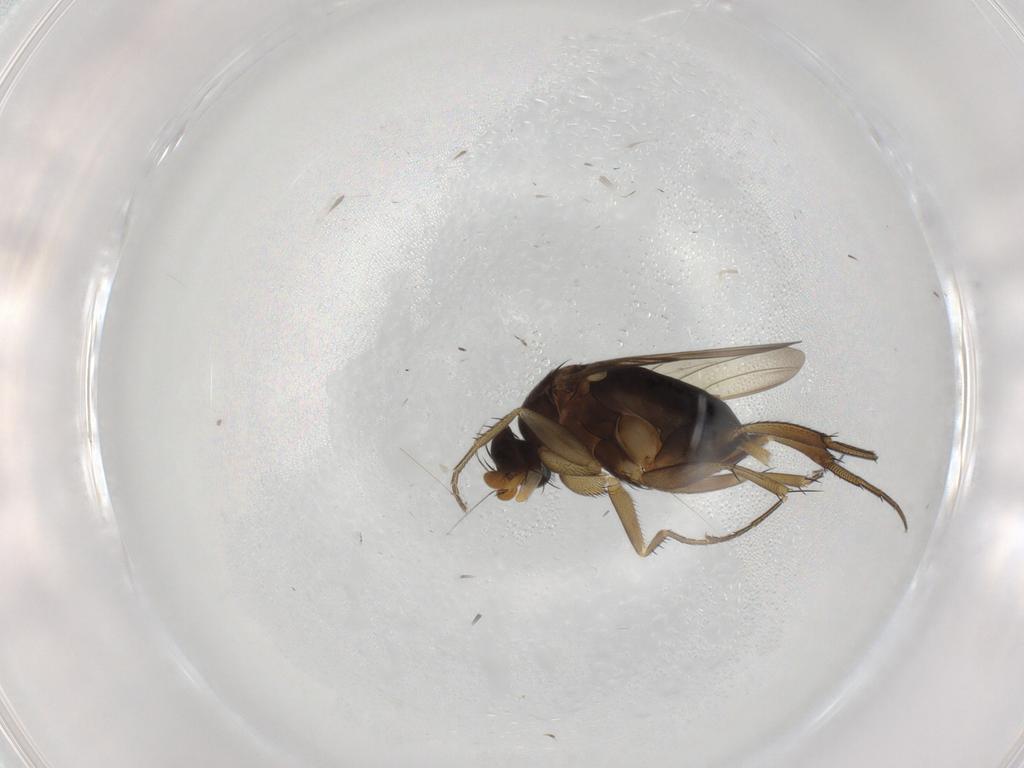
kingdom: Animalia
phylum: Arthropoda
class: Insecta
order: Diptera
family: Phoridae
